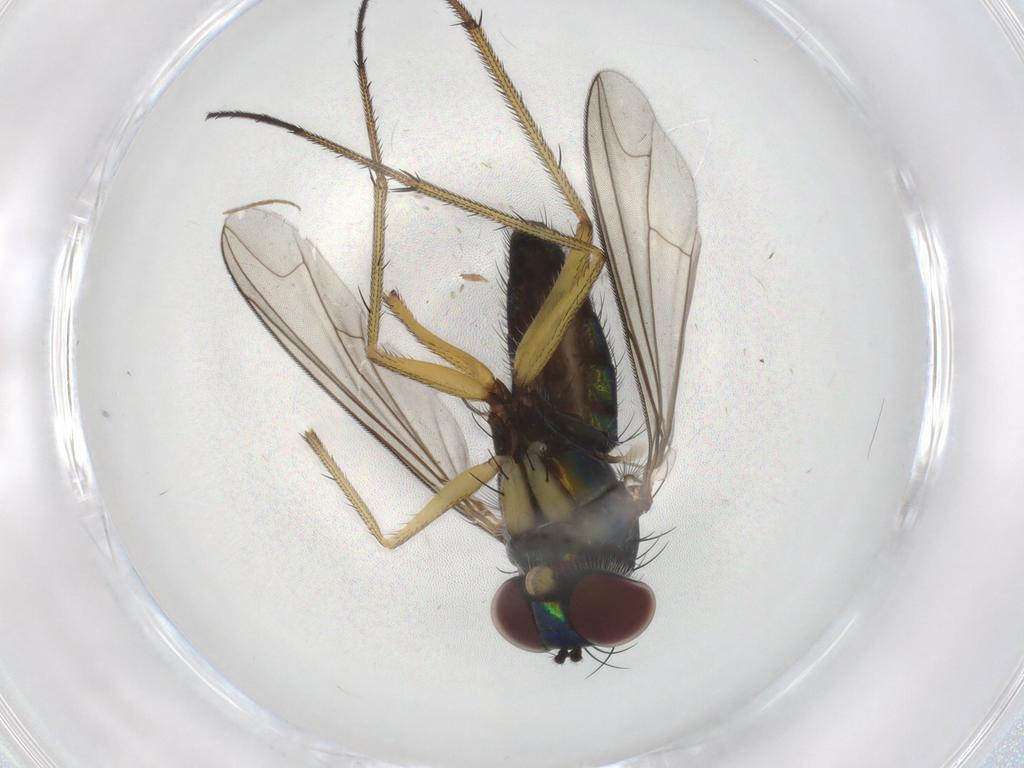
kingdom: Animalia
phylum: Arthropoda
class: Insecta
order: Diptera
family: Dolichopodidae
